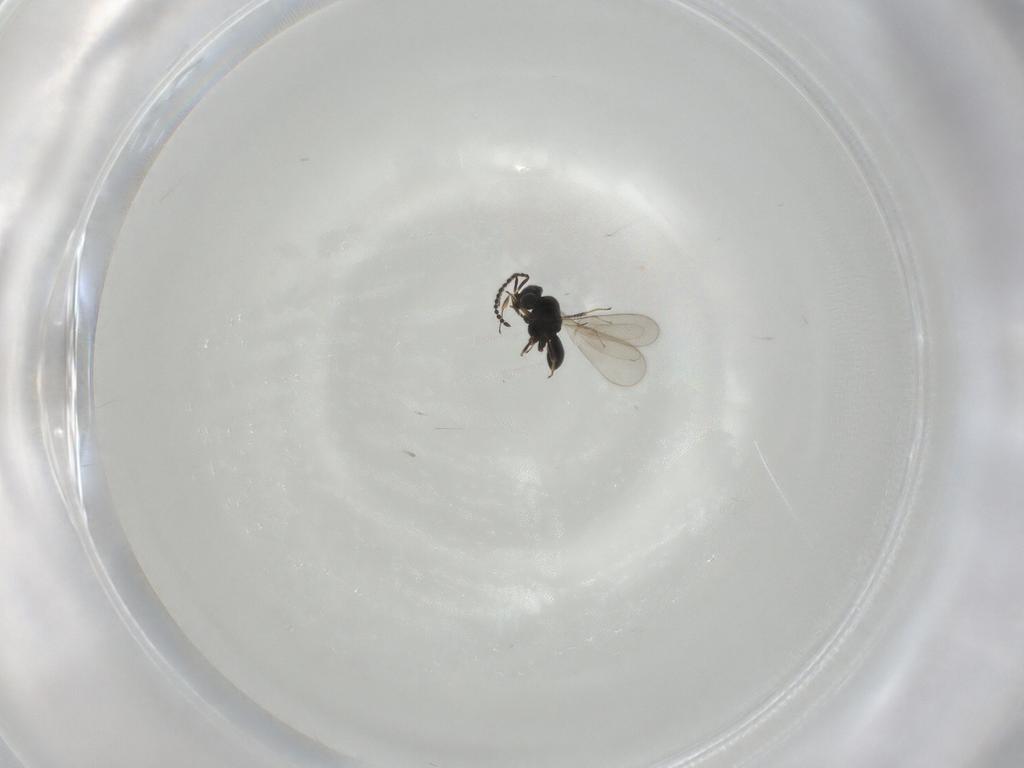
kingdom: Animalia
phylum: Arthropoda
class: Insecta
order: Hymenoptera
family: Scelionidae
